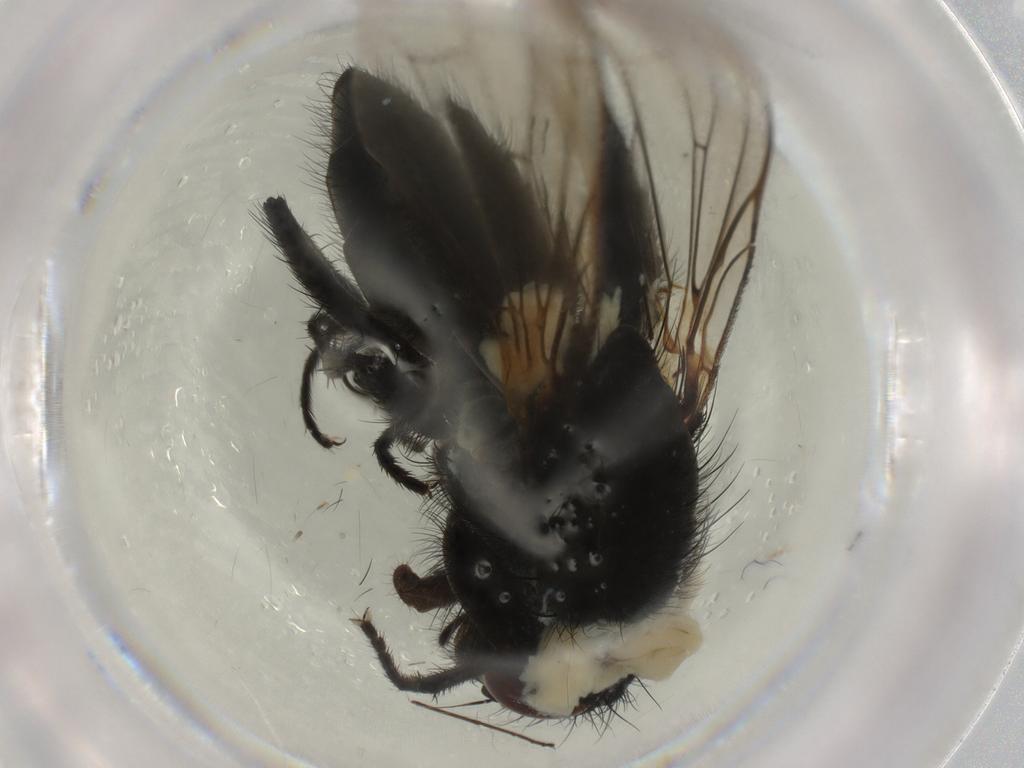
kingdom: Animalia
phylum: Arthropoda
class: Insecta
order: Diptera
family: Muscidae
